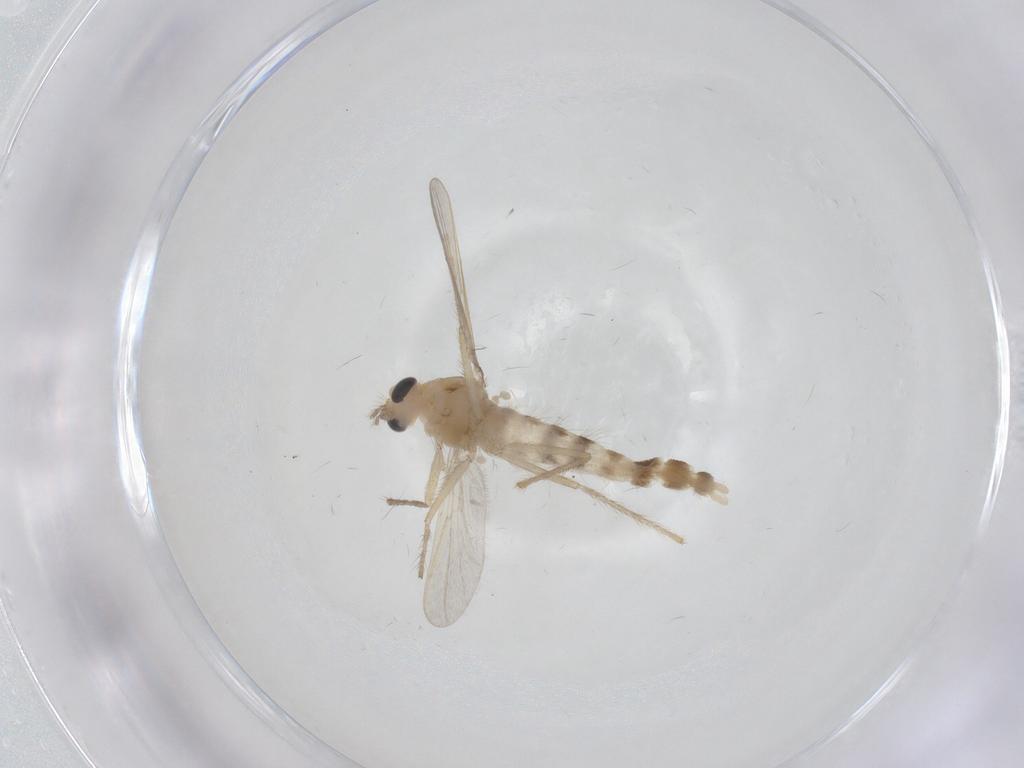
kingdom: Animalia
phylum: Arthropoda
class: Insecta
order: Diptera
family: Chironomidae
